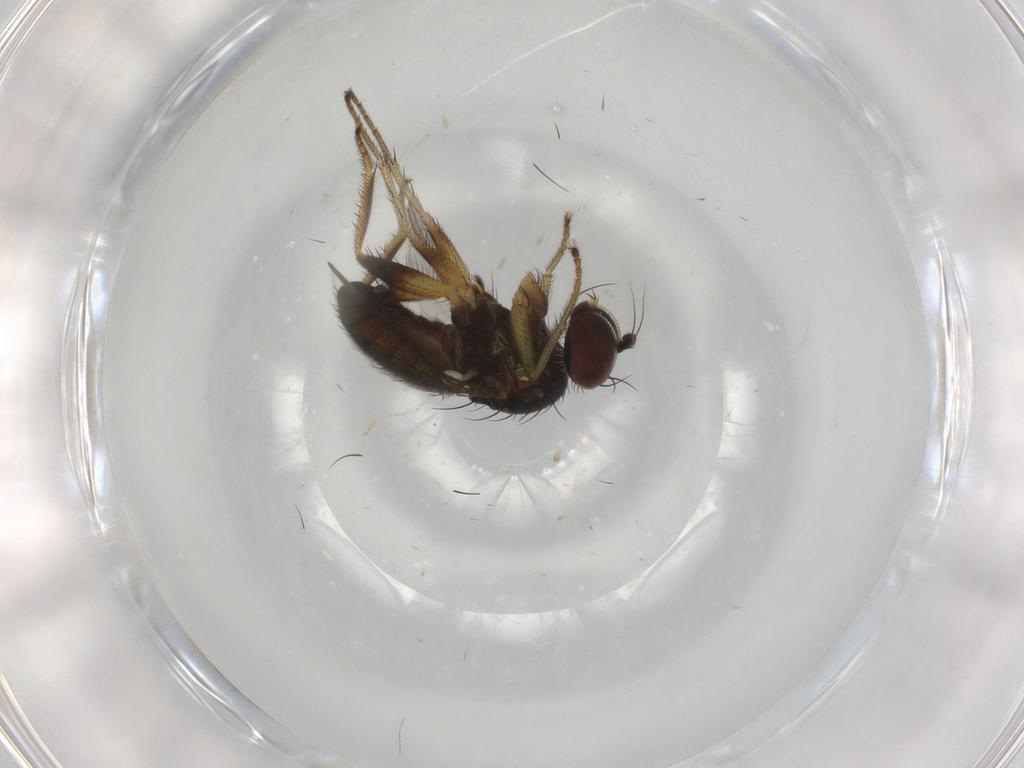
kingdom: Animalia
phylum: Arthropoda
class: Insecta
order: Diptera
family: Dolichopodidae
